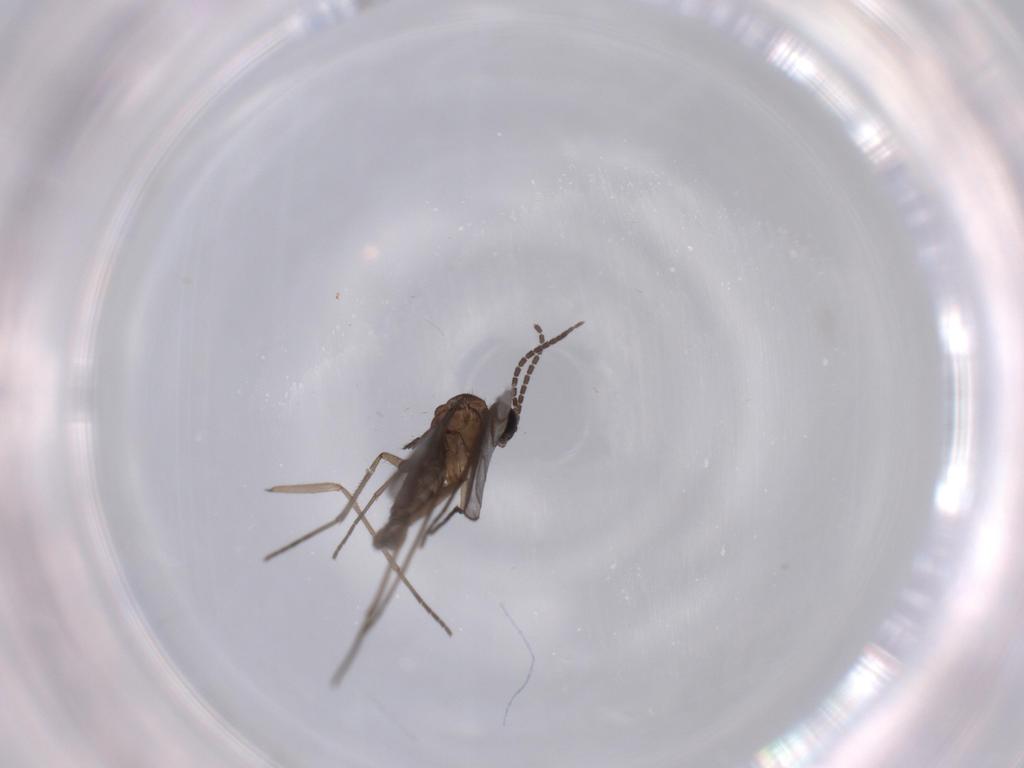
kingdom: Animalia
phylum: Arthropoda
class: Insecta
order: Diptera
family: Sciaridae
